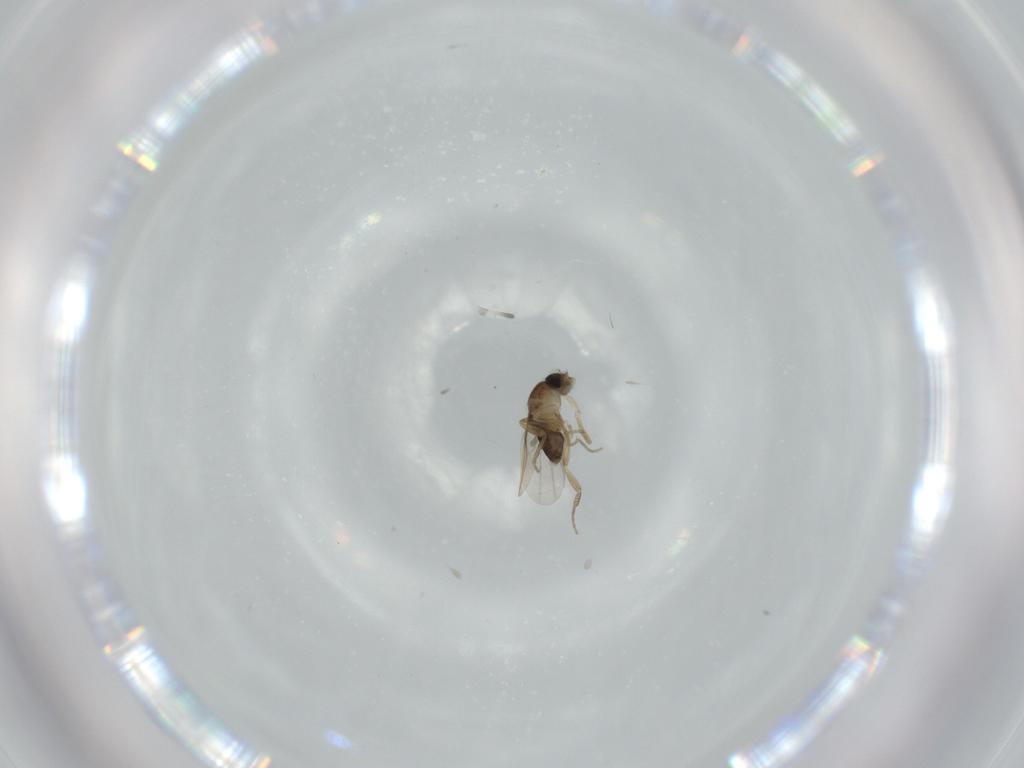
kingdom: Animalia
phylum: Arthropoda
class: Insecta
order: Diptera
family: Phoridae
